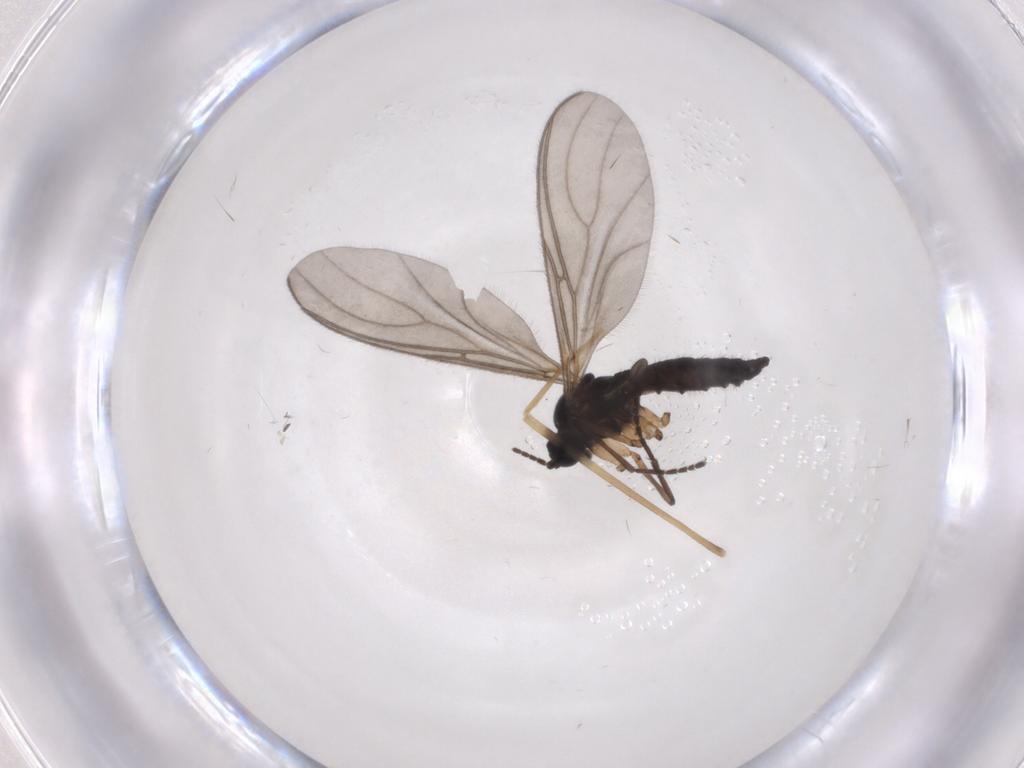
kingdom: Animalia
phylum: Arthropoda
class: Insecta
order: Diptera
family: Sciaridae
